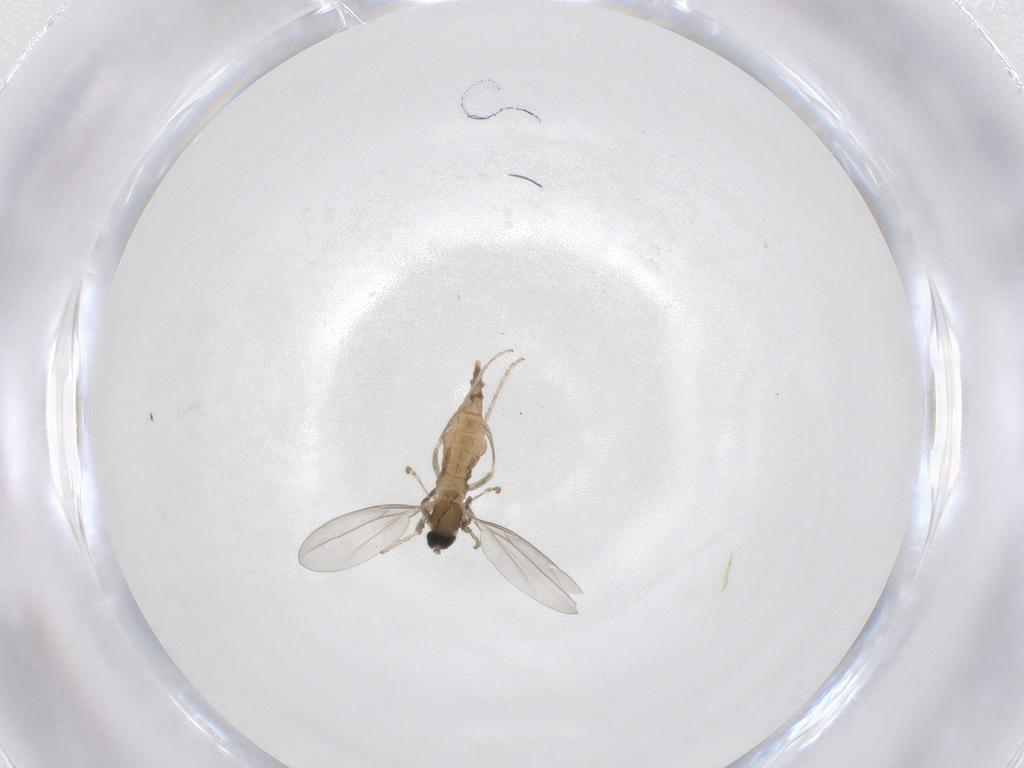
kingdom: Animalia
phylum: Arthropoda
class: Insecta
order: Diptera
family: Cecidomyiidae
